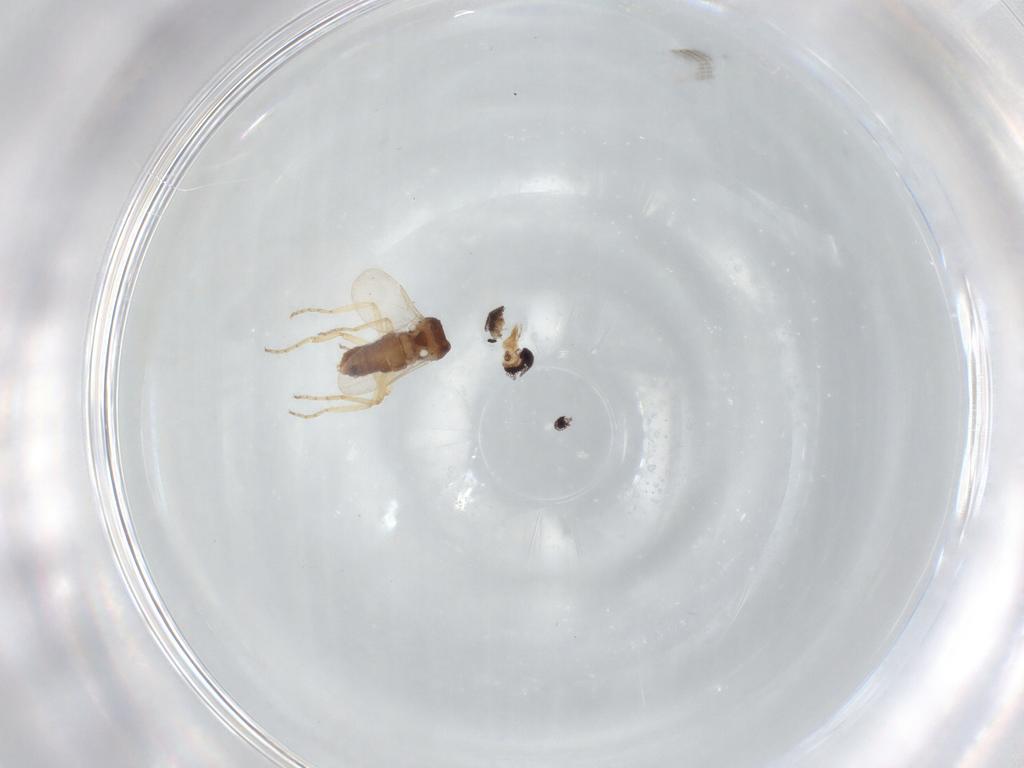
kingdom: Animalia
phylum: Arthropoda
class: Insecta
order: Diptera
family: Ceratopogonidae
